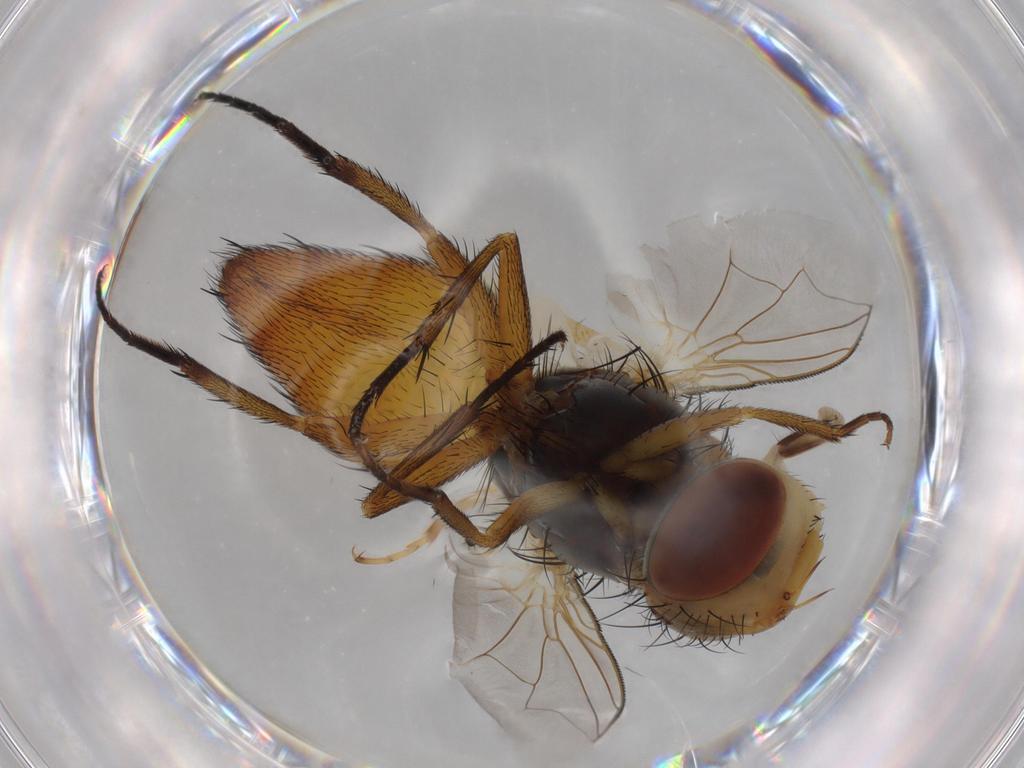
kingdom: Animalia
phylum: Arthropoda
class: Insecta
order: Diptera
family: Sarcophagidae
